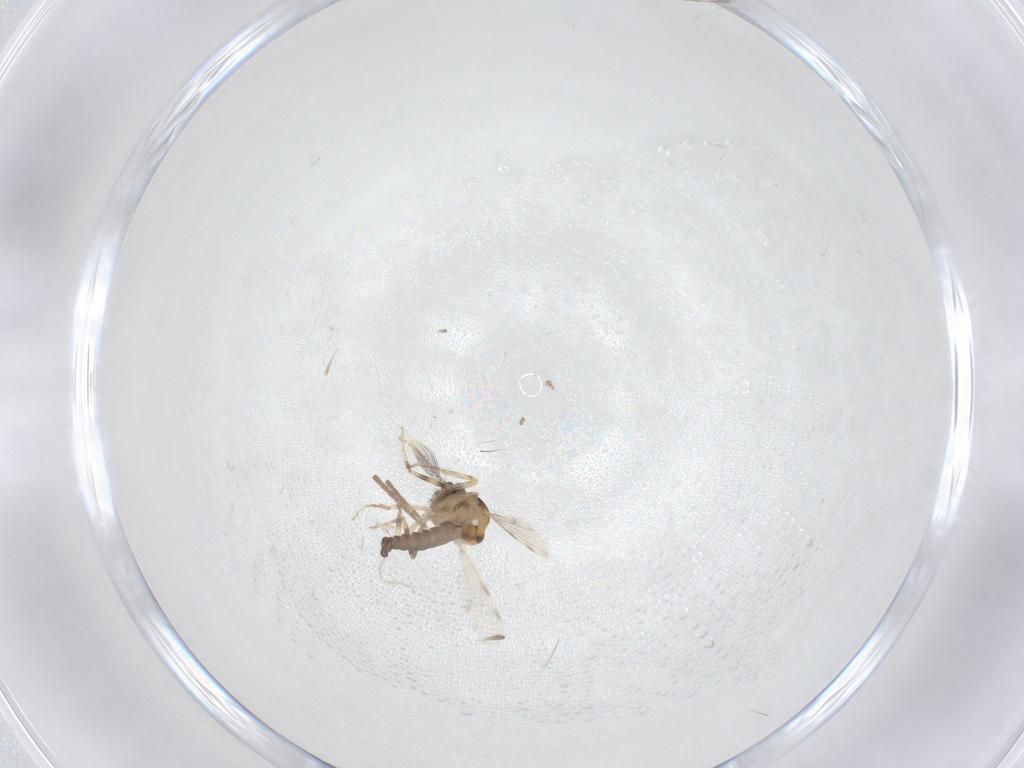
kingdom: Animalia
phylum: Arthropoda
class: Insecta
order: Diptera
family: Ceratopogonidae
